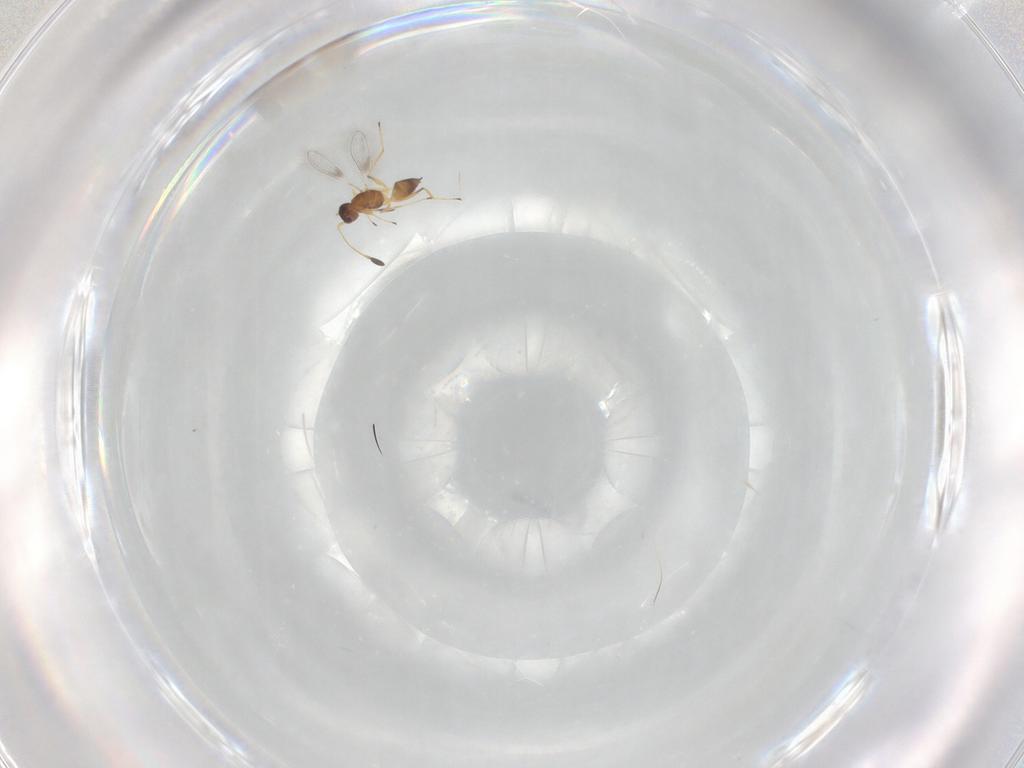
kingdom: Animalia
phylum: Arthropoda
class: Insecta
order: Hymenoptera
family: Mymaridae
